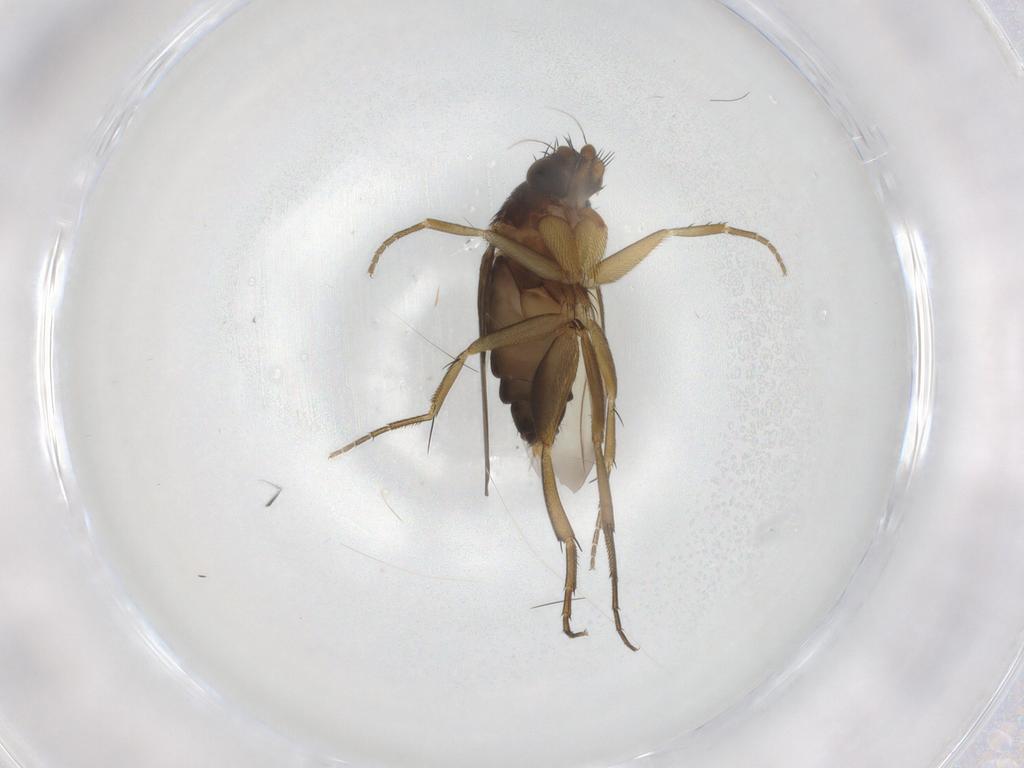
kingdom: Animalia
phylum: Arthropoda
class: Insecta
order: Diptera
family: Phoridae
